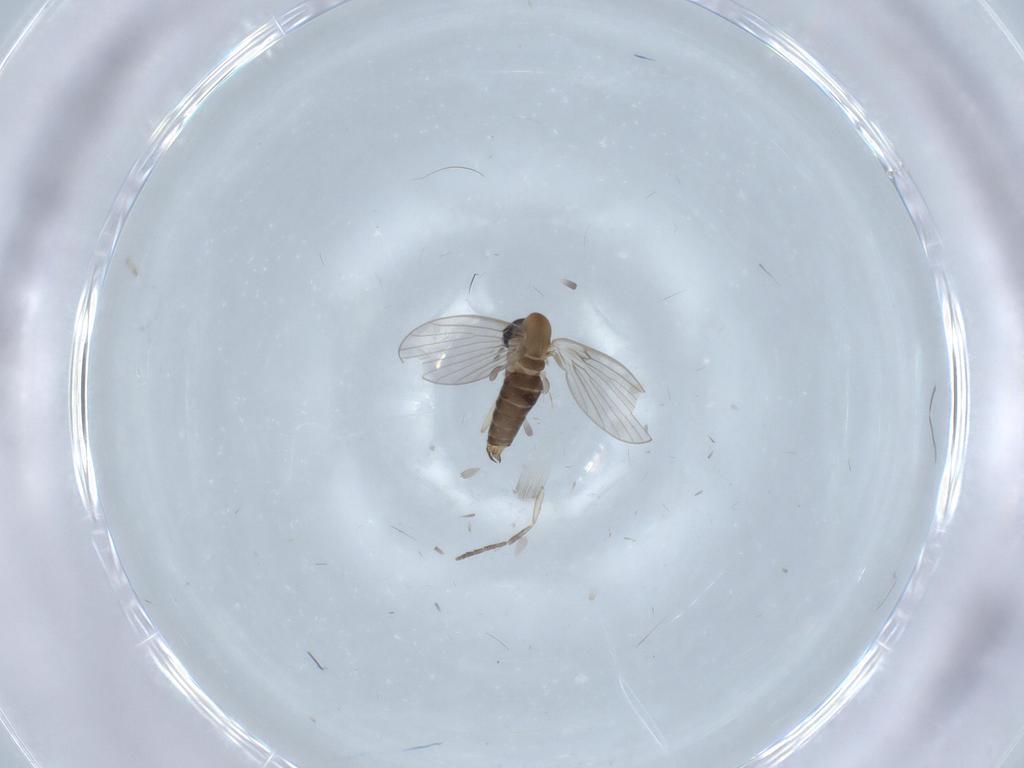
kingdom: Animalia
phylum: Arthropoda
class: Insecta
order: Diptera
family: Psychodidae
